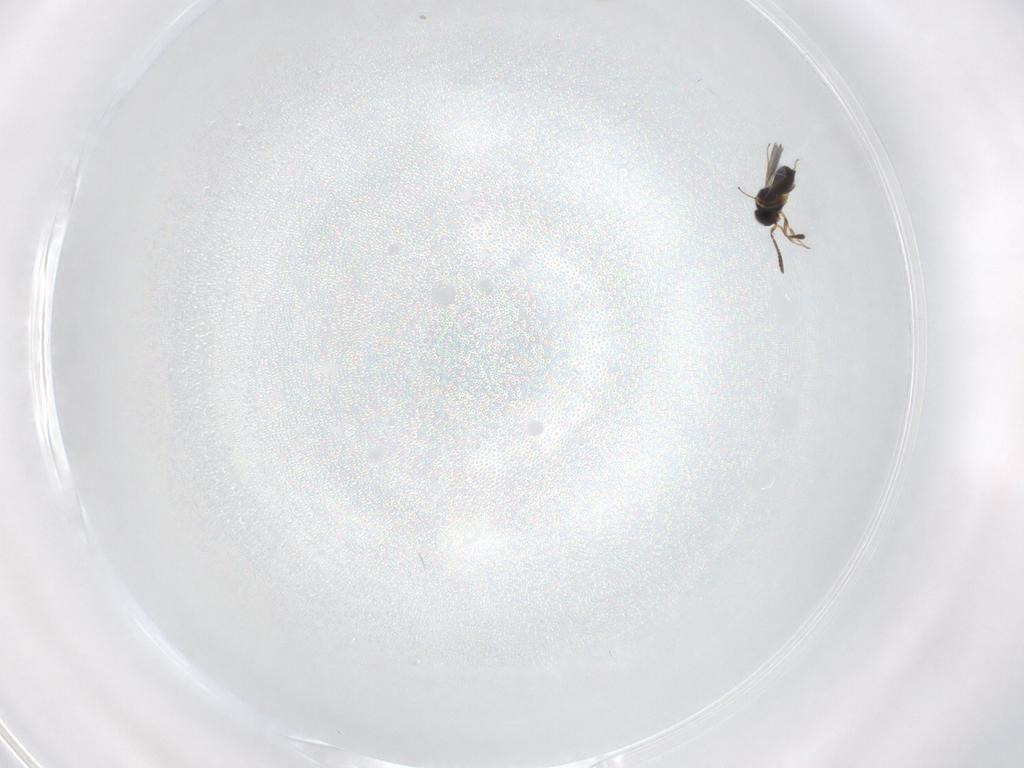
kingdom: Animalia
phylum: Arthropoda
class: Insecta
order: Hymenoptera
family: Scelionidae
